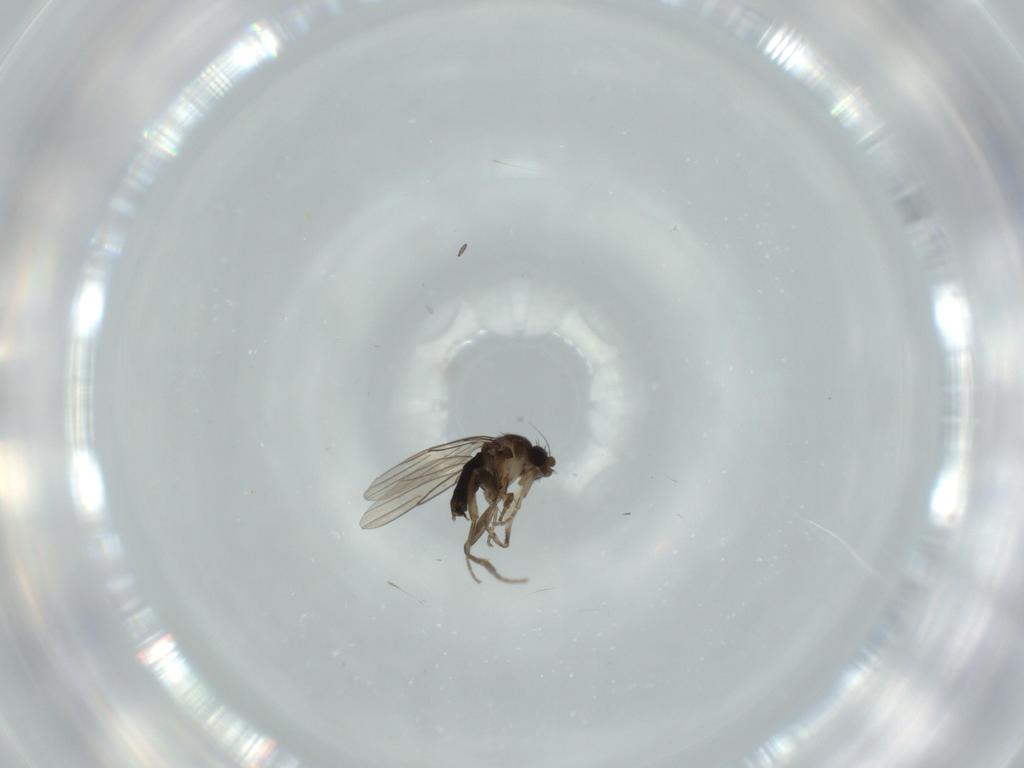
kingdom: Animalia
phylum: Arthropoda
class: Insecta
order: Diptera
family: Phoridae
